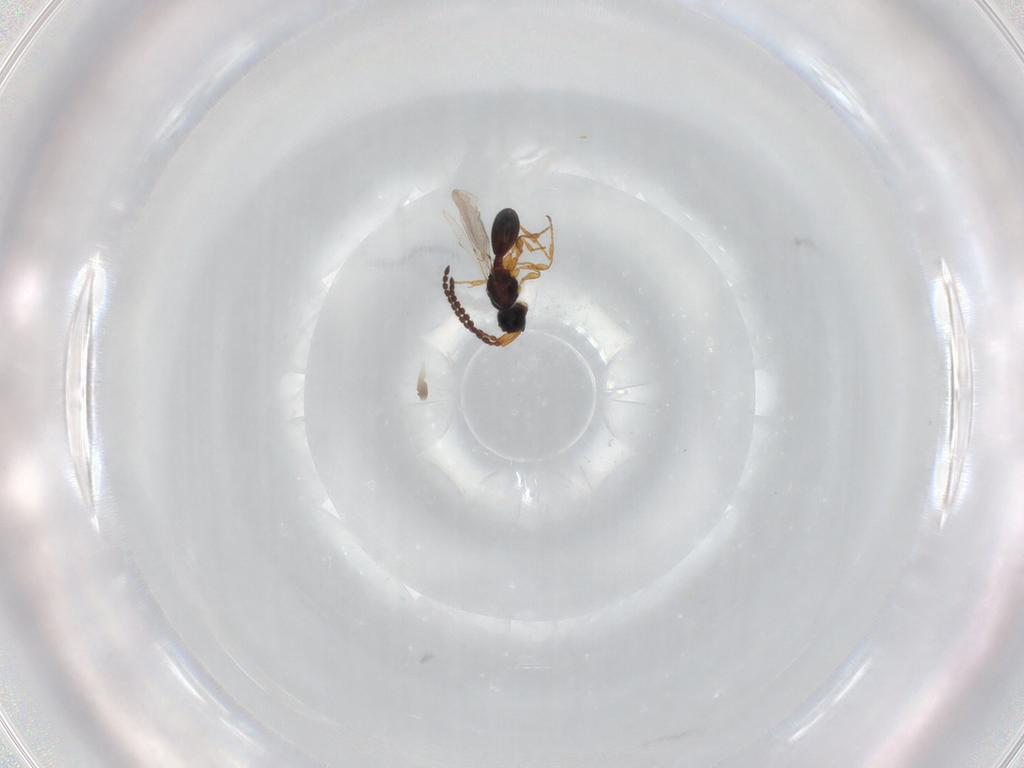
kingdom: Animalia
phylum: Arthropoda
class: Insecta
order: Hymenoptera
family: Diapriidae
